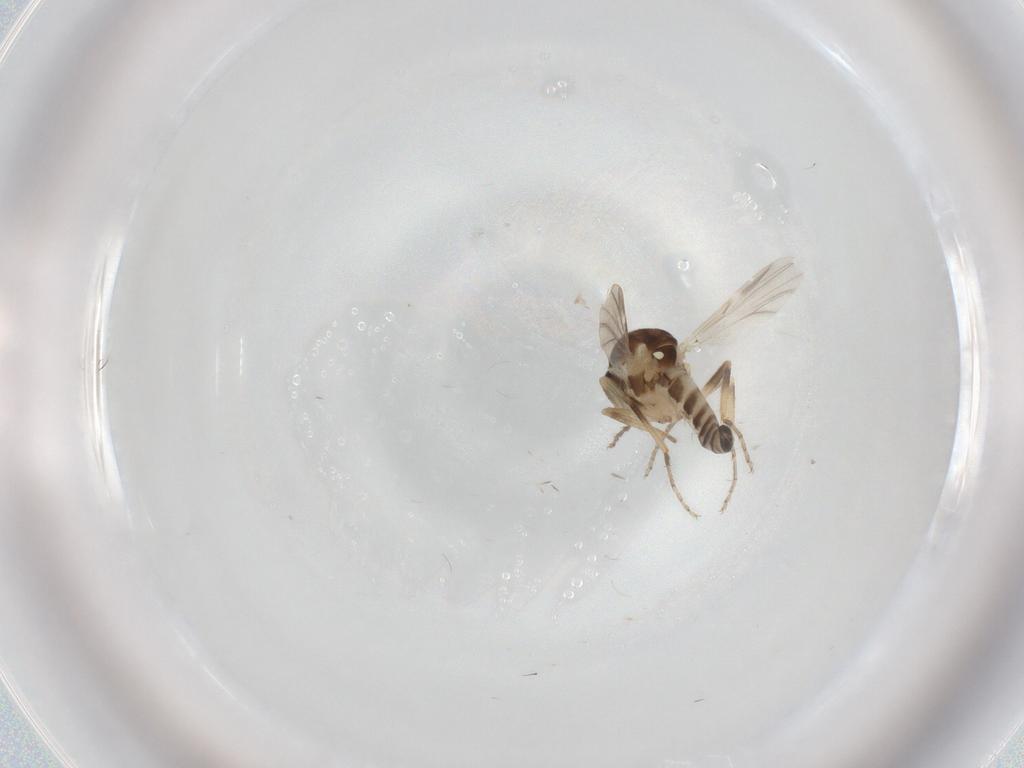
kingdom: Animalia
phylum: Arthropoda
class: Insecta
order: Diptera
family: Ceratopogonidae
